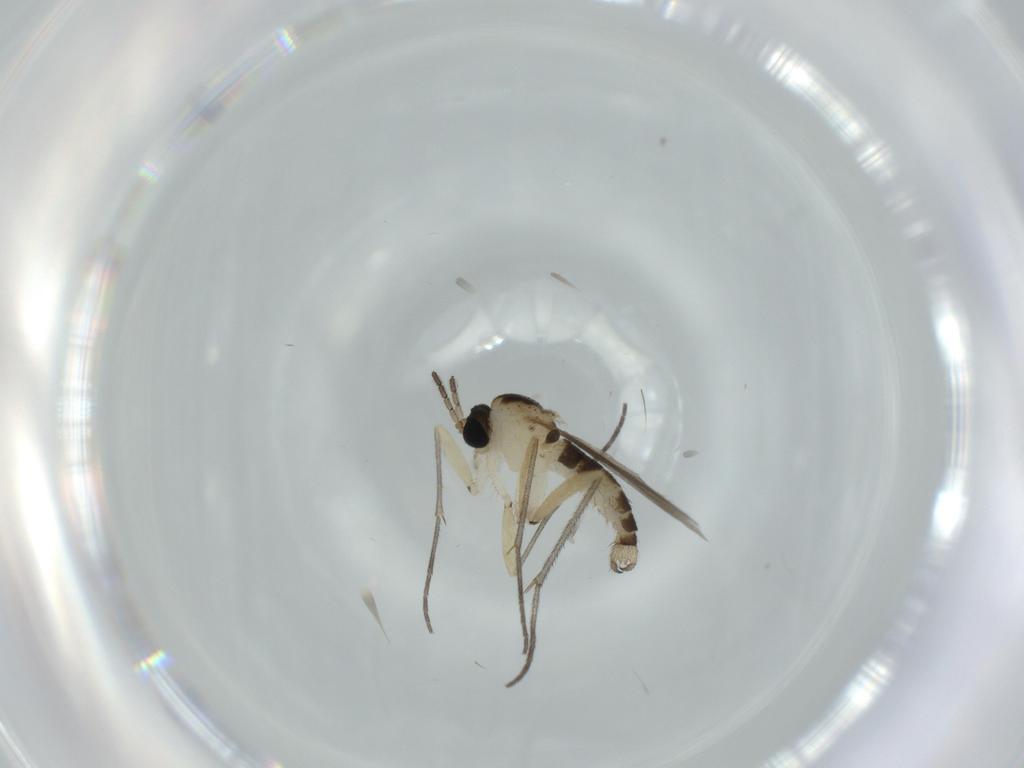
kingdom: Animalia
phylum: Arthropoda
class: Insecta
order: Diptera
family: Sciaridae
